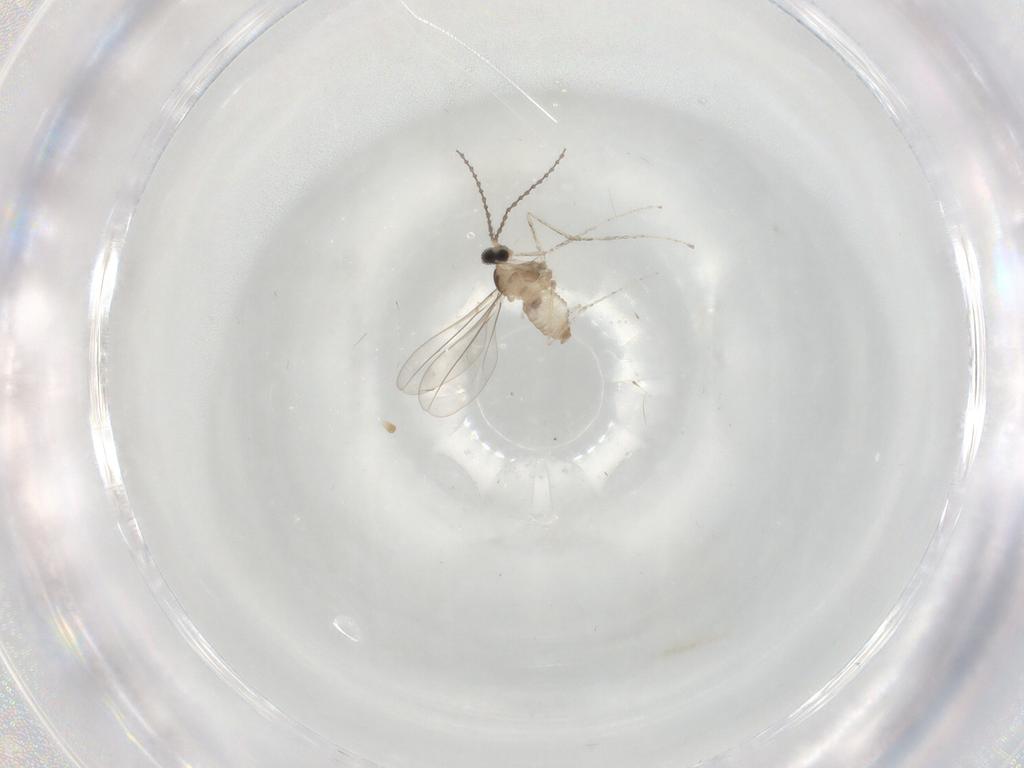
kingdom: Animalia
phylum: Arthropoda
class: Insecta
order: Diptera
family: Cecidomyiidae
